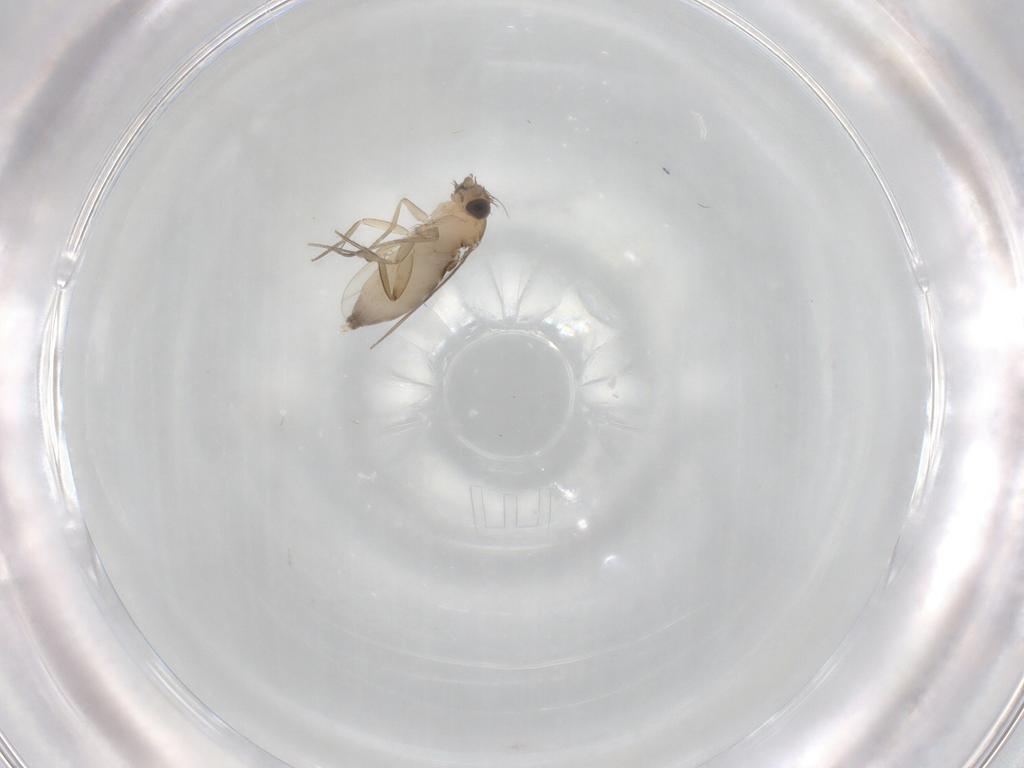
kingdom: Animalia
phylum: Arthropoda
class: Insecta
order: Diptera
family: Phoridae
